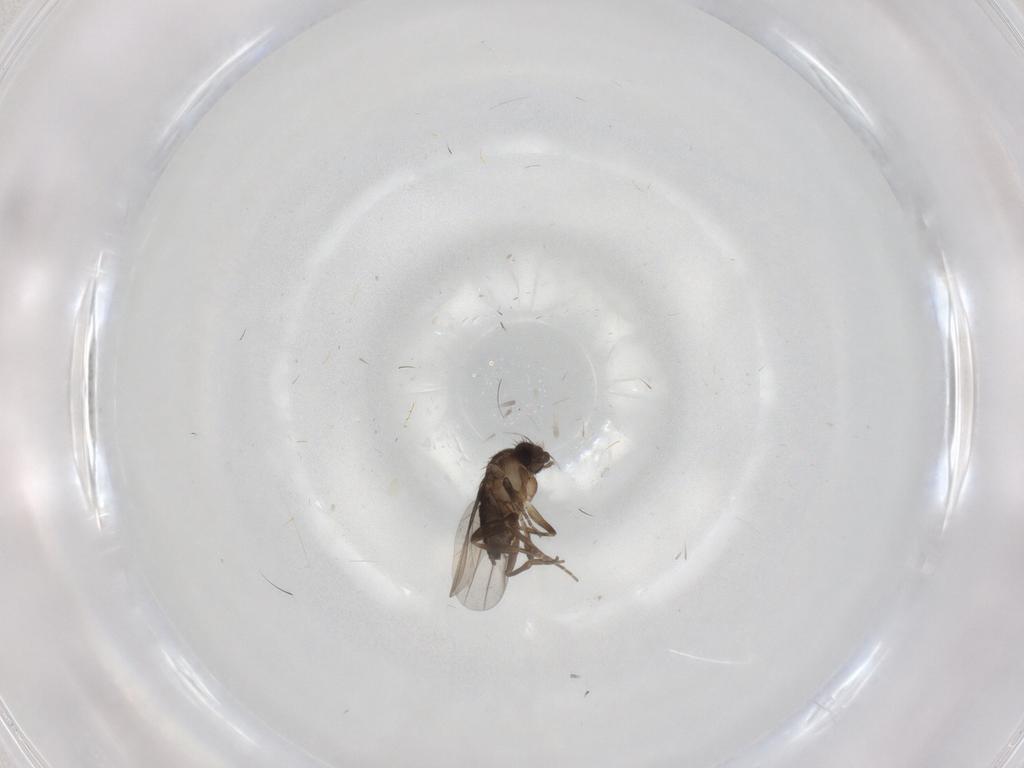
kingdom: Animalia
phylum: Arthropoda
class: Insecta
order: Diptera
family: Phoridae
